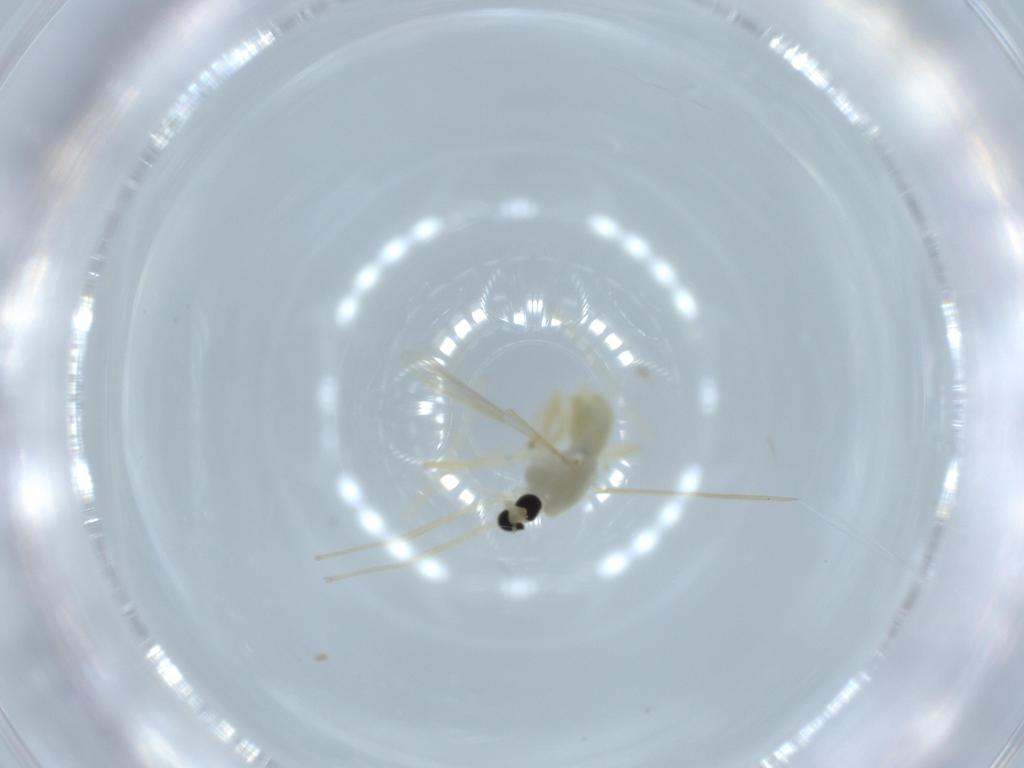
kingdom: Animalia
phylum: Arthropoda
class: Insecta
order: Diptera
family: Chironomidae
